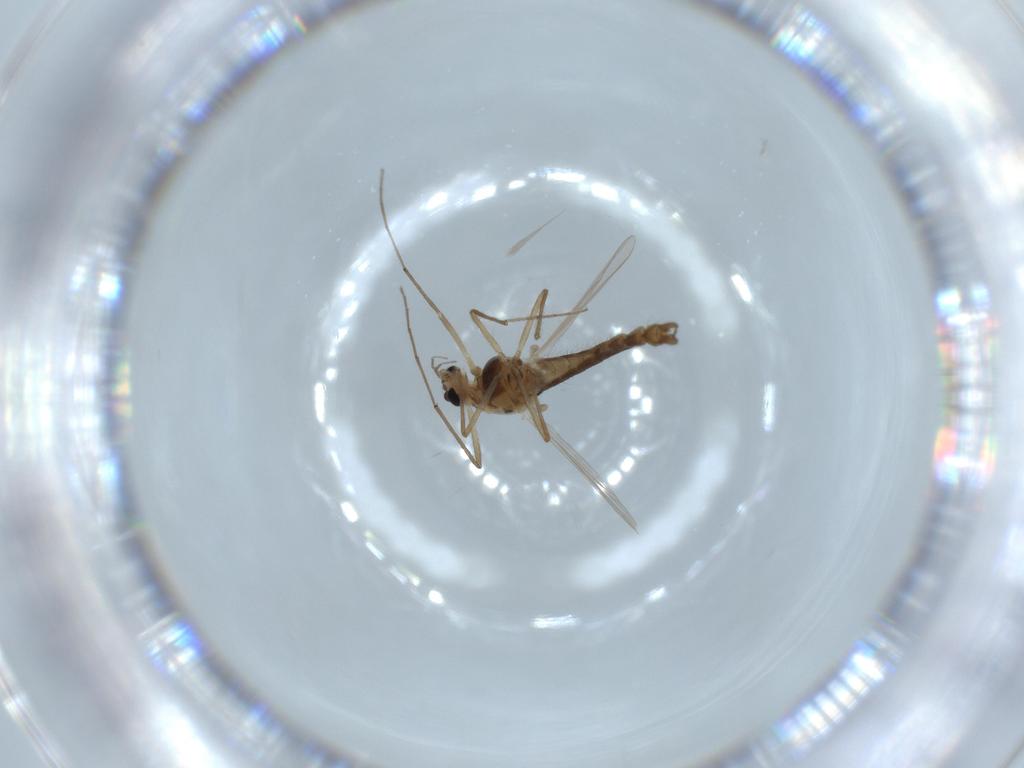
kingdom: Animalia
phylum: Arthropoda
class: Insecta
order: Diptera
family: Chironomidae
